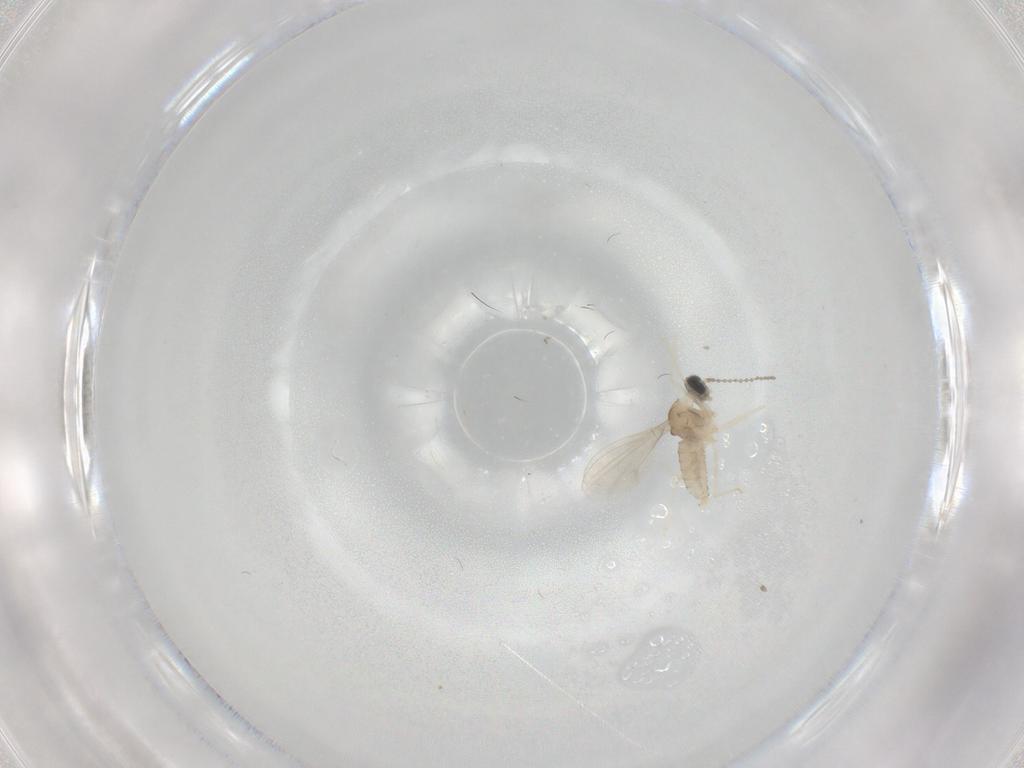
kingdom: Animalia
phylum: Arthropoda
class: Insecta
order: Diptera
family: Cecidomyiidae
